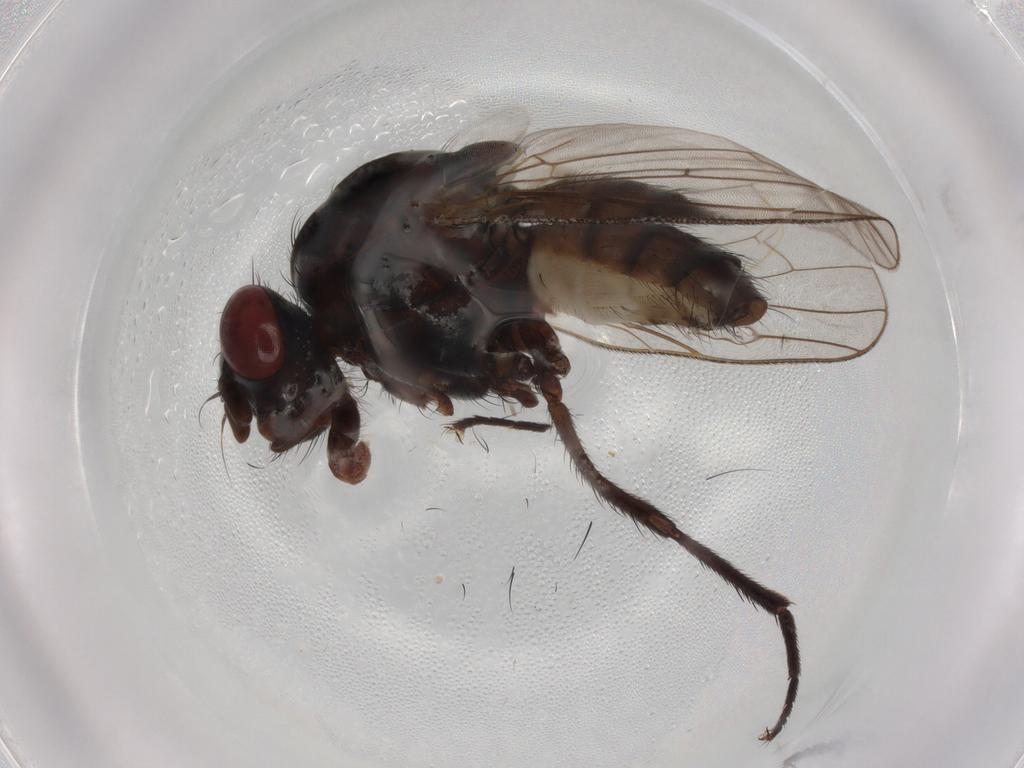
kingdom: Animalia
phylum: Arthropoda
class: Insecta
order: Diptera
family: Anthomyiidae
